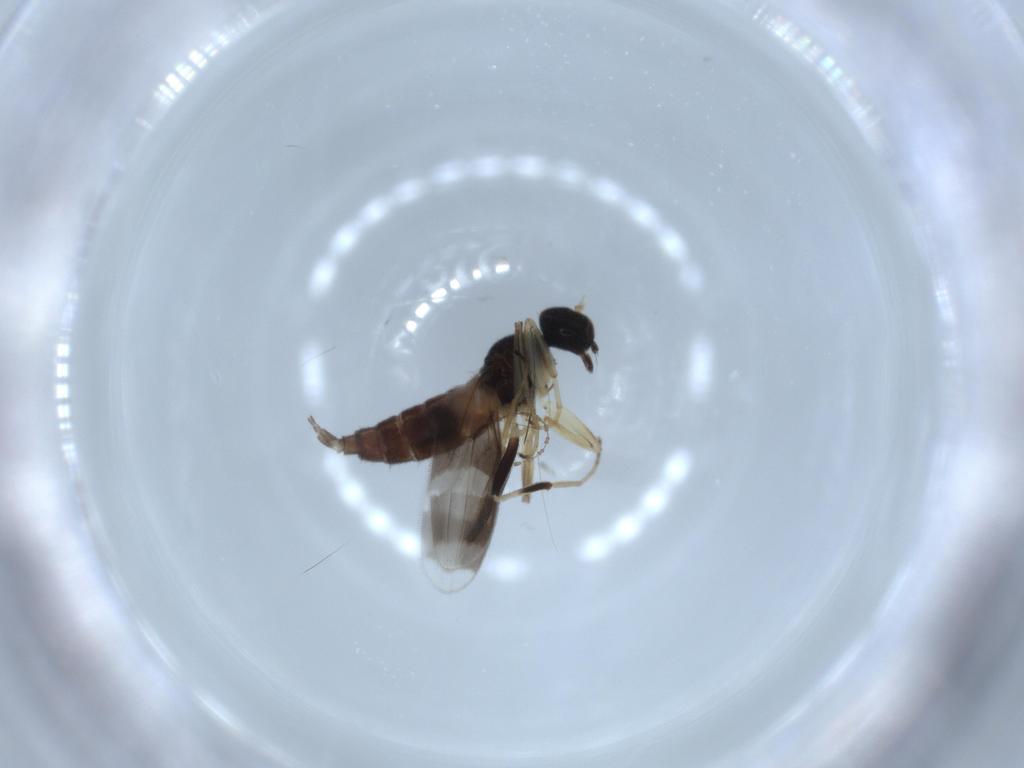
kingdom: Animalia
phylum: Arthropoda
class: Insecta
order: Diptera
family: Hybotidae
